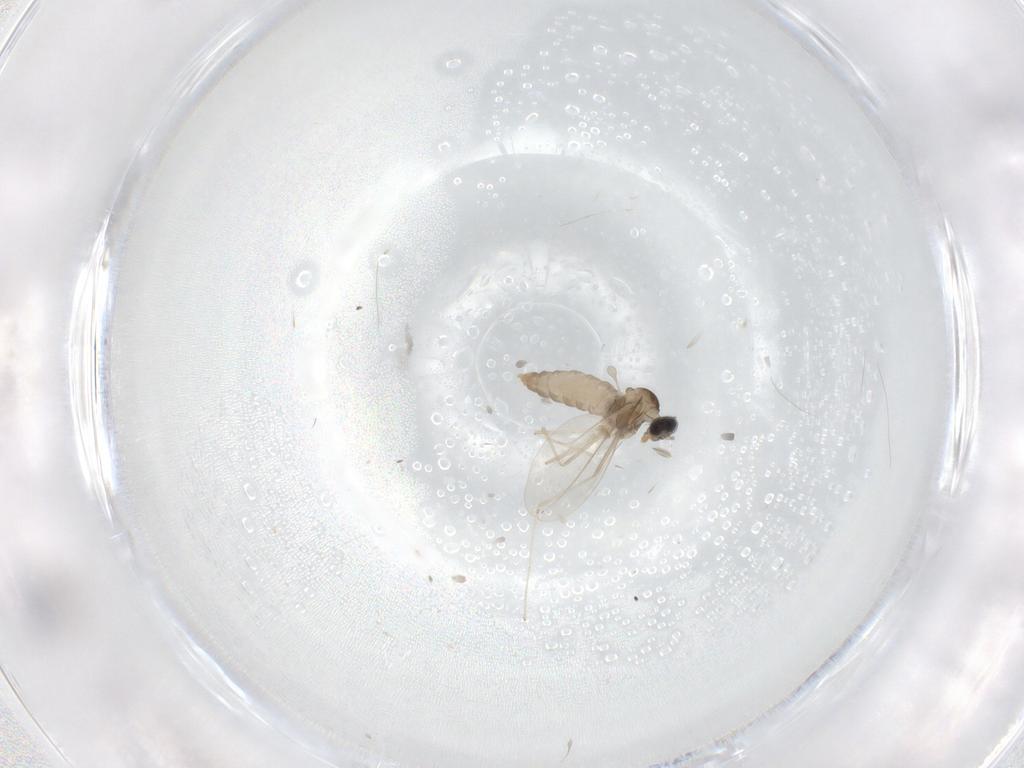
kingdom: Animalia
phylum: Arthropoda
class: Insecta
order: Diptera
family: Cecidomyiidae
